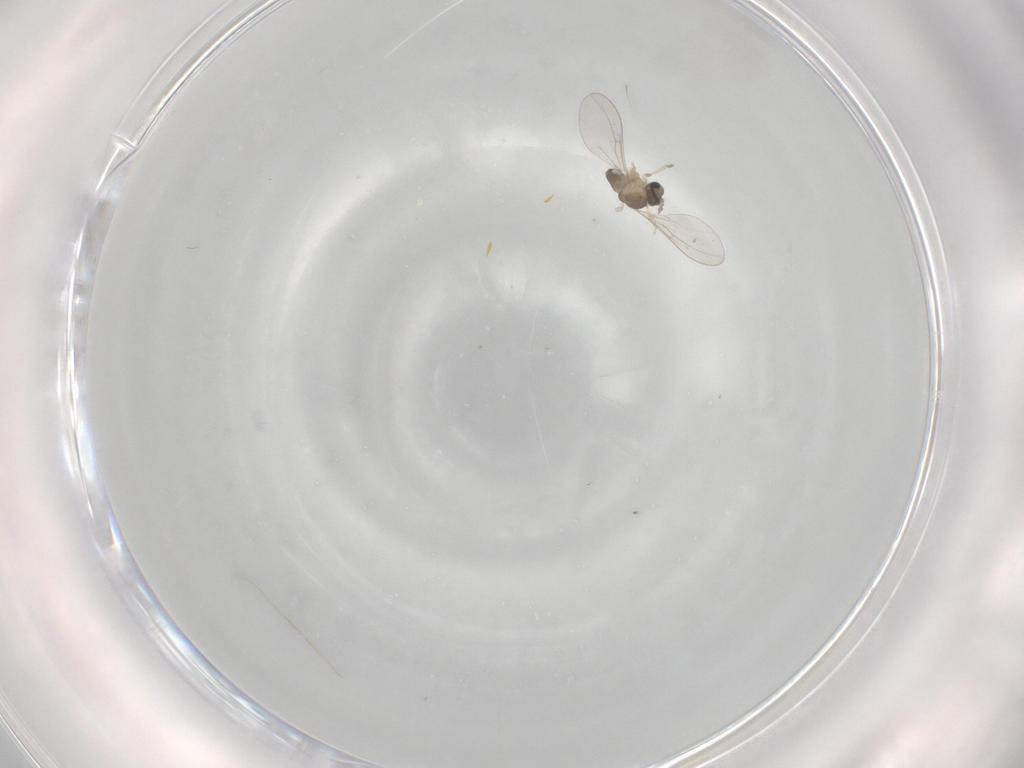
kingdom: Animalia
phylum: Arthropoda
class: Insecta
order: Diptera
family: Cecidomyiidae
